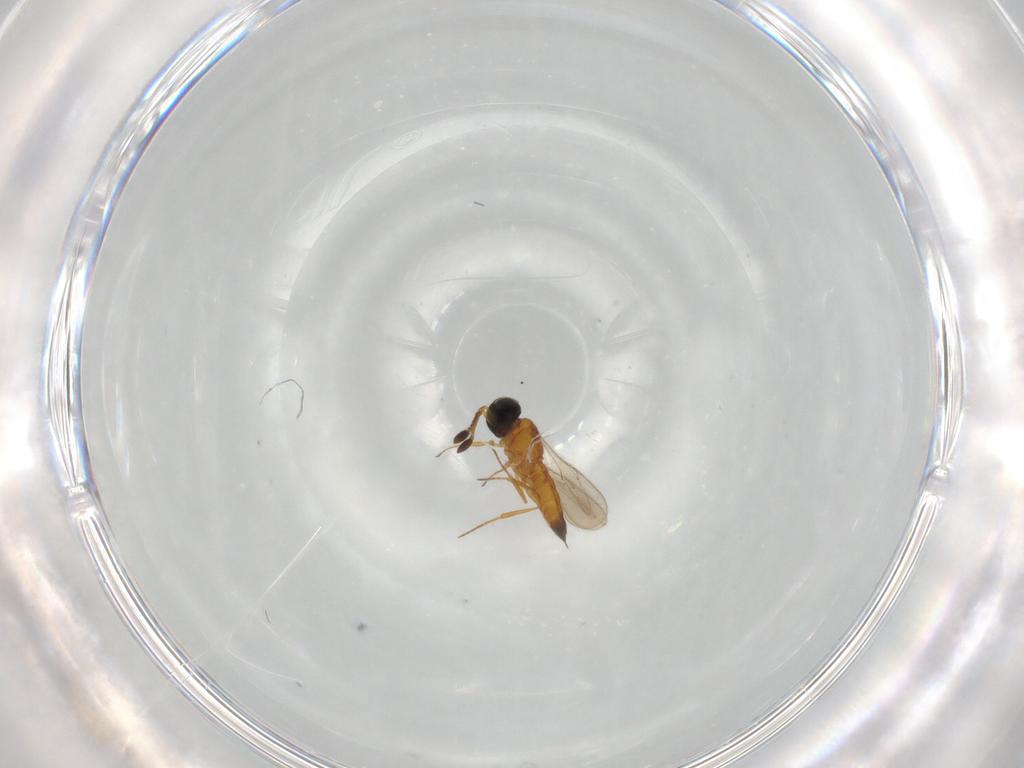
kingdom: Animalia
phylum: Arthropoda
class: Insecta
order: Hymenoptera
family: Scelionidae
